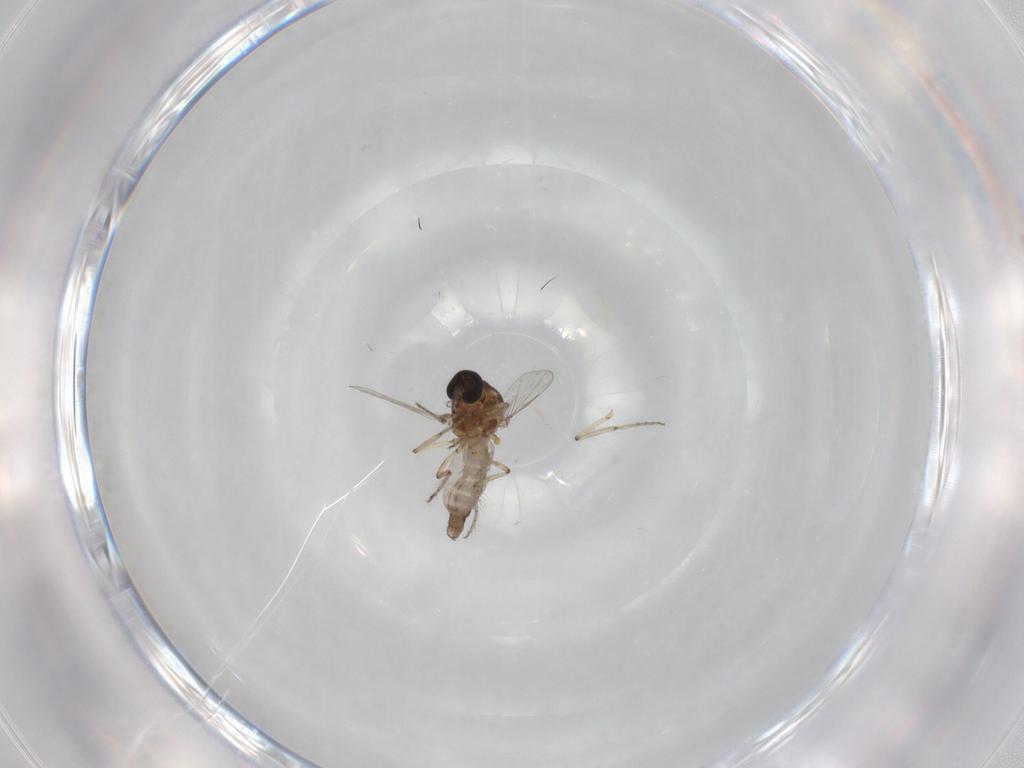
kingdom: Animalia
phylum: Arthropoda
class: Insecta
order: Diptera
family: Ceratopogonidae
